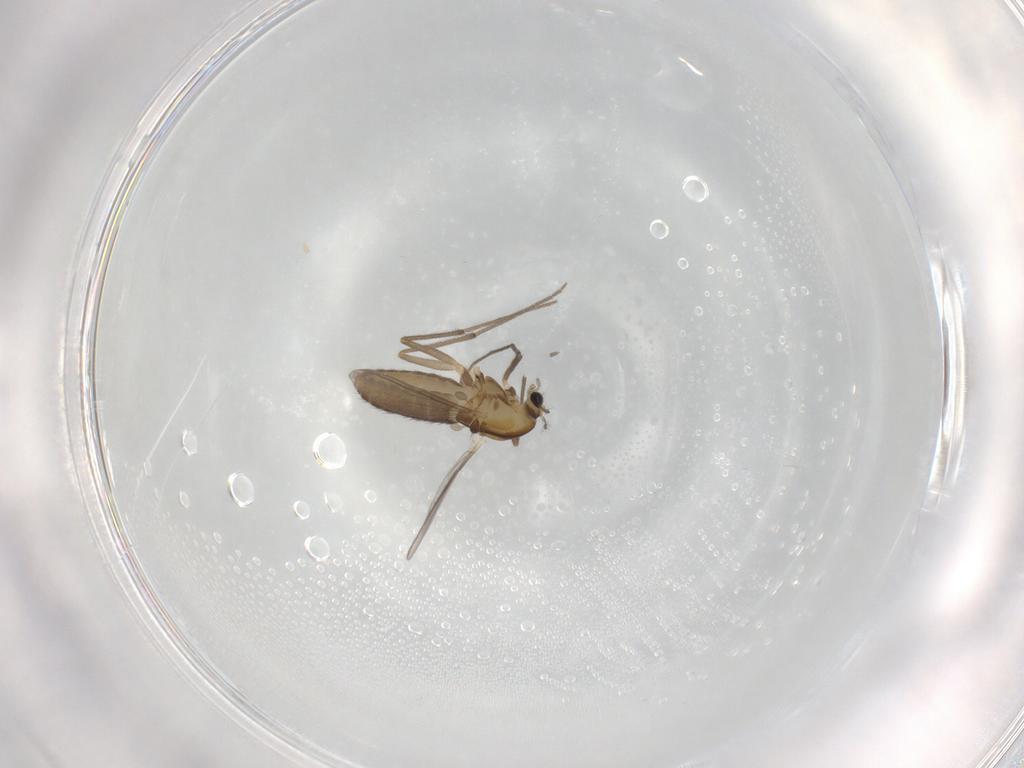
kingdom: Animalia
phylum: Arthropoda
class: Insecta
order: Diptera
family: Chironomidae
